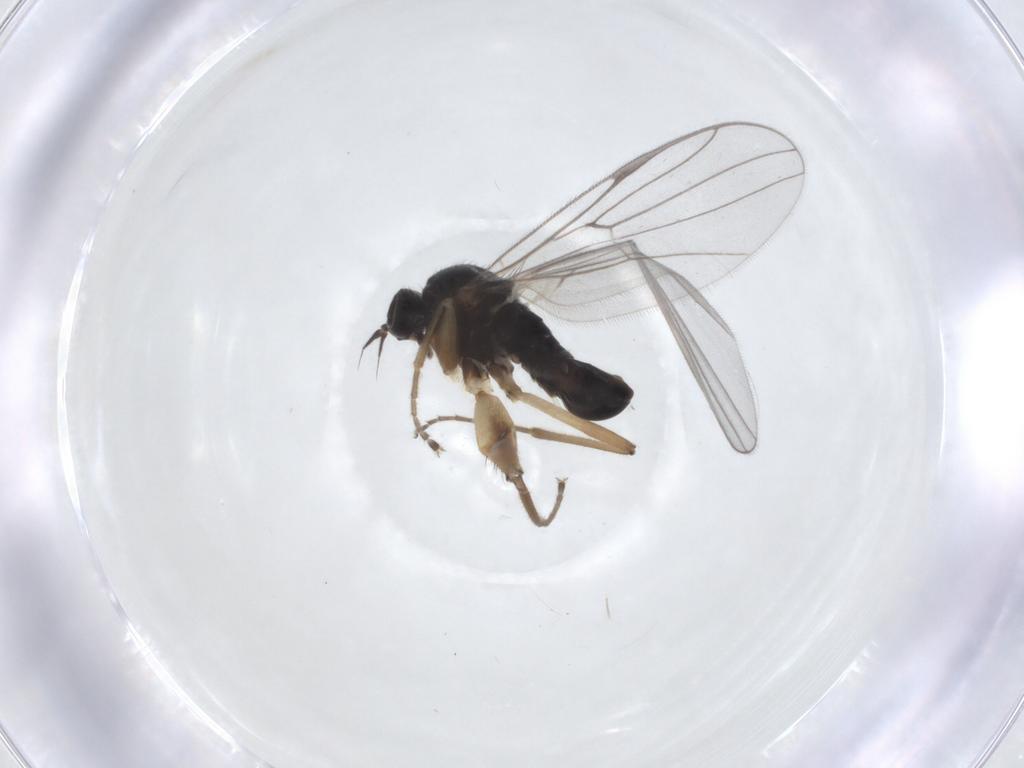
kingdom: Animalia
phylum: Arthropoda
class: Insecta
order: Diptera
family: Hybotidae
